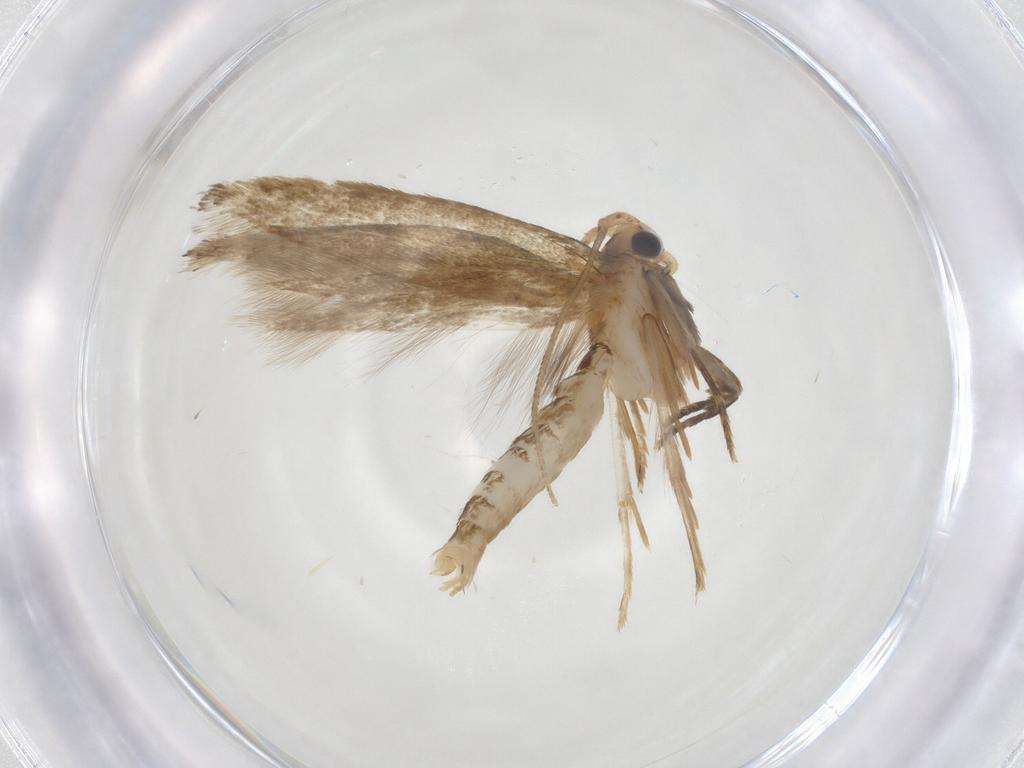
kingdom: Animalia
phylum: Arthropoda
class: Insecta
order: Lepidoptera
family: Tineidae
